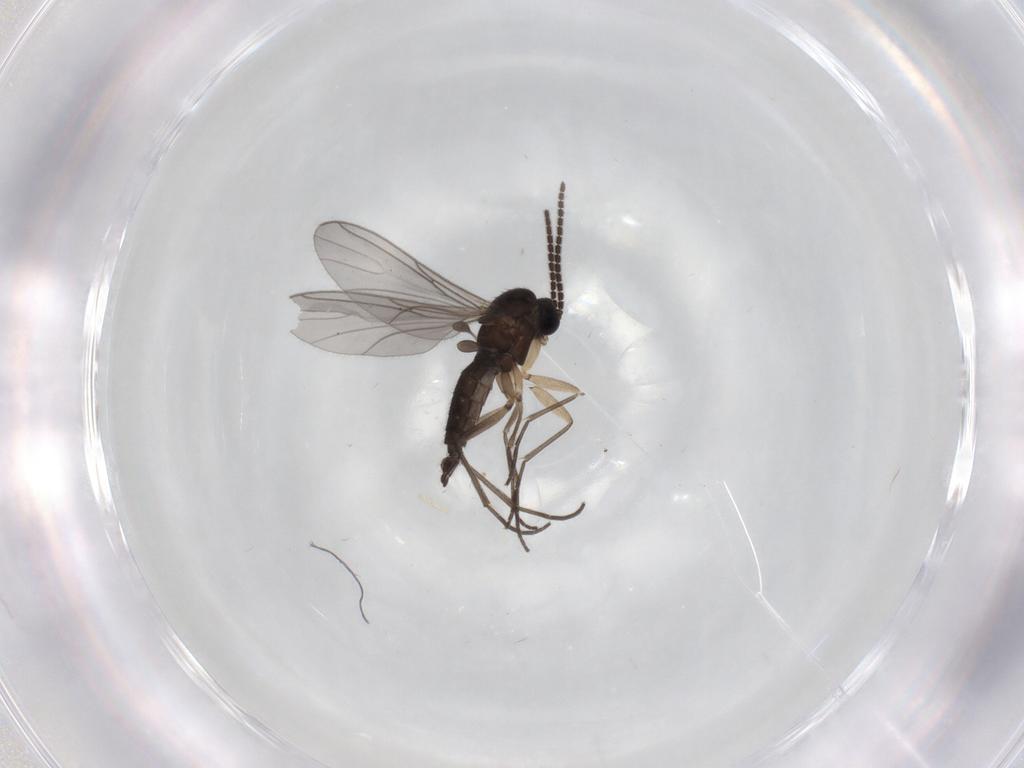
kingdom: Animalia
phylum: Arthropoda
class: Insecta
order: Diptera
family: Sciaridae
